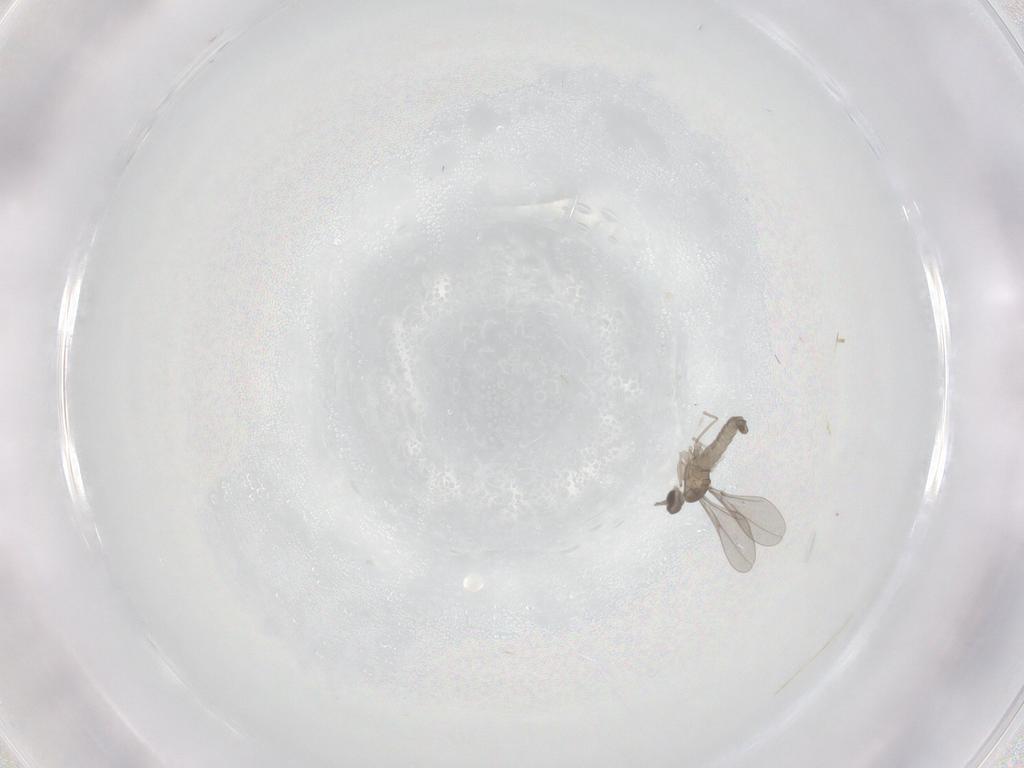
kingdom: Animalia
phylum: Arthropoda
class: Insecta
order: Diptera
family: Cecidomyiidae
